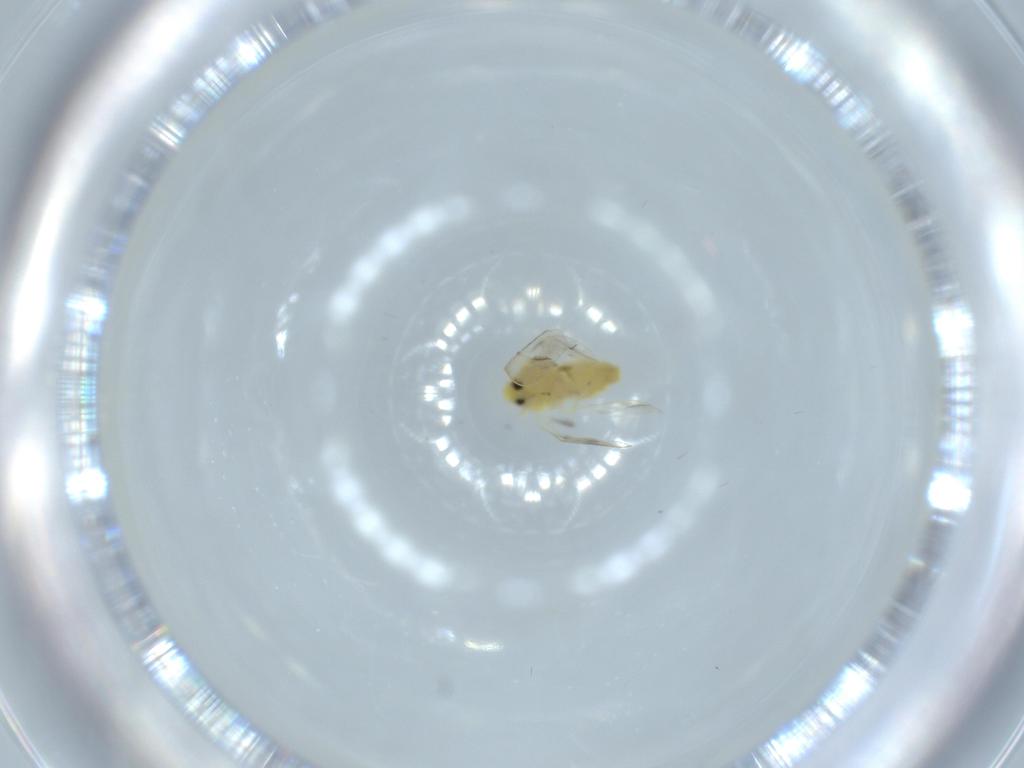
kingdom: Animalia
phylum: Arthropoda
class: Insecta
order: Hemiptera
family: Aleyrodidae
